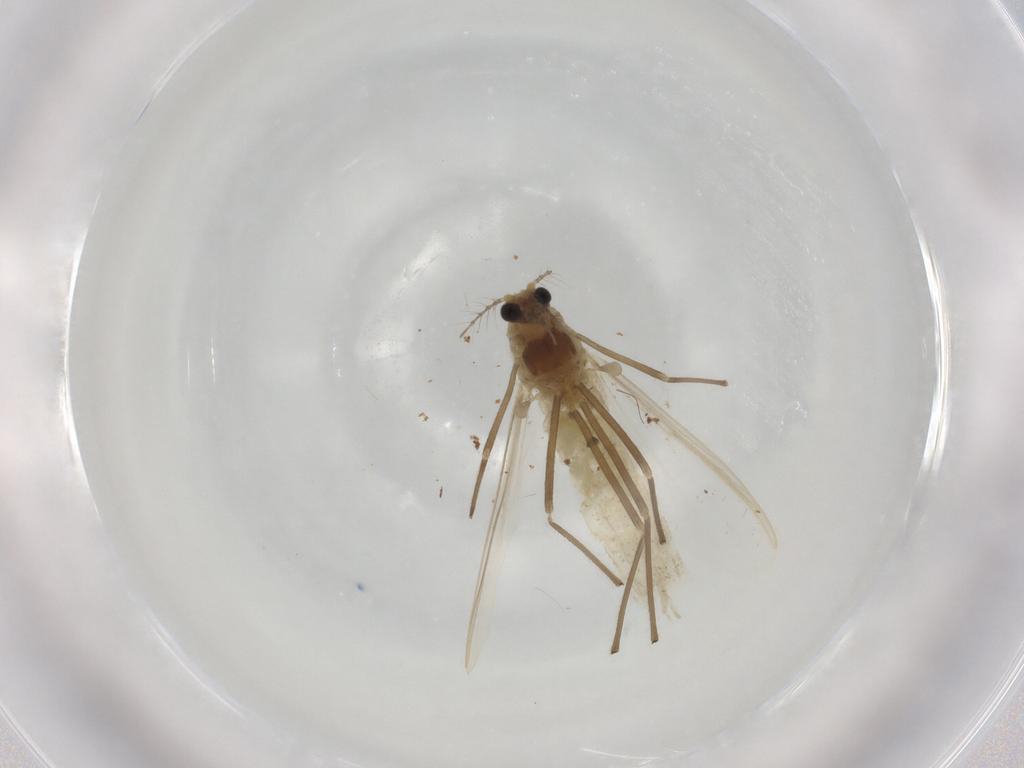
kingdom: Animalia
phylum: Arthropoda
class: Insecta
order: Diptera
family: Chironomidae
